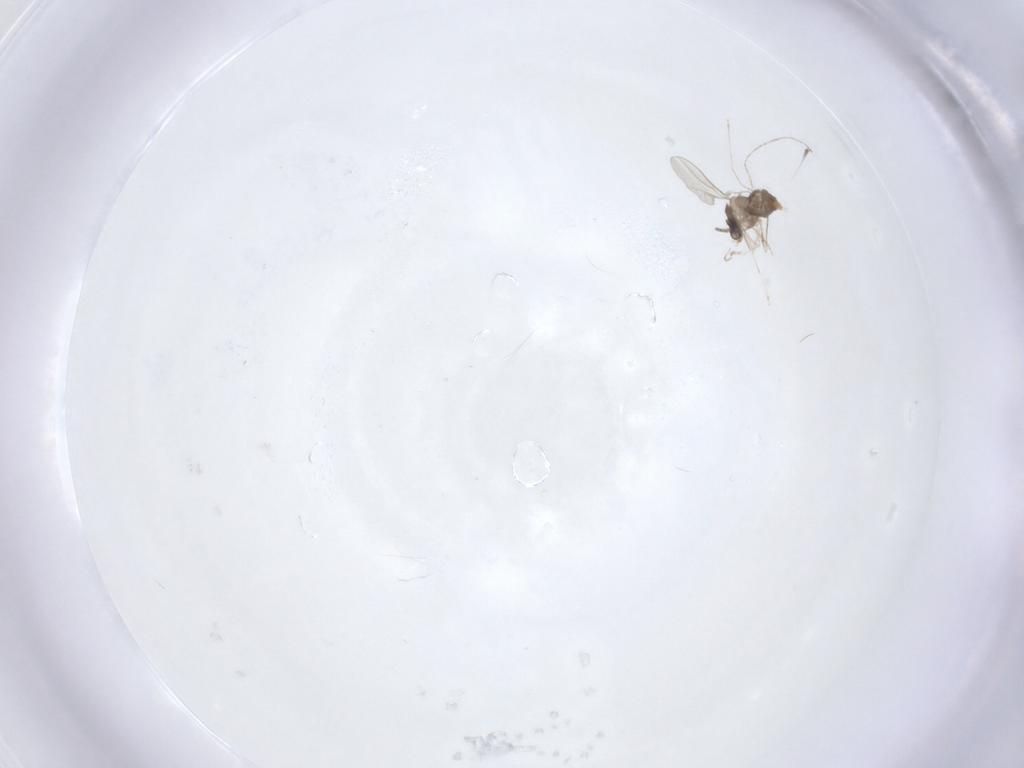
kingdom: Animalia
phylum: Arthropoda
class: Insecta
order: Diptera
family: Cecidomyiidae
